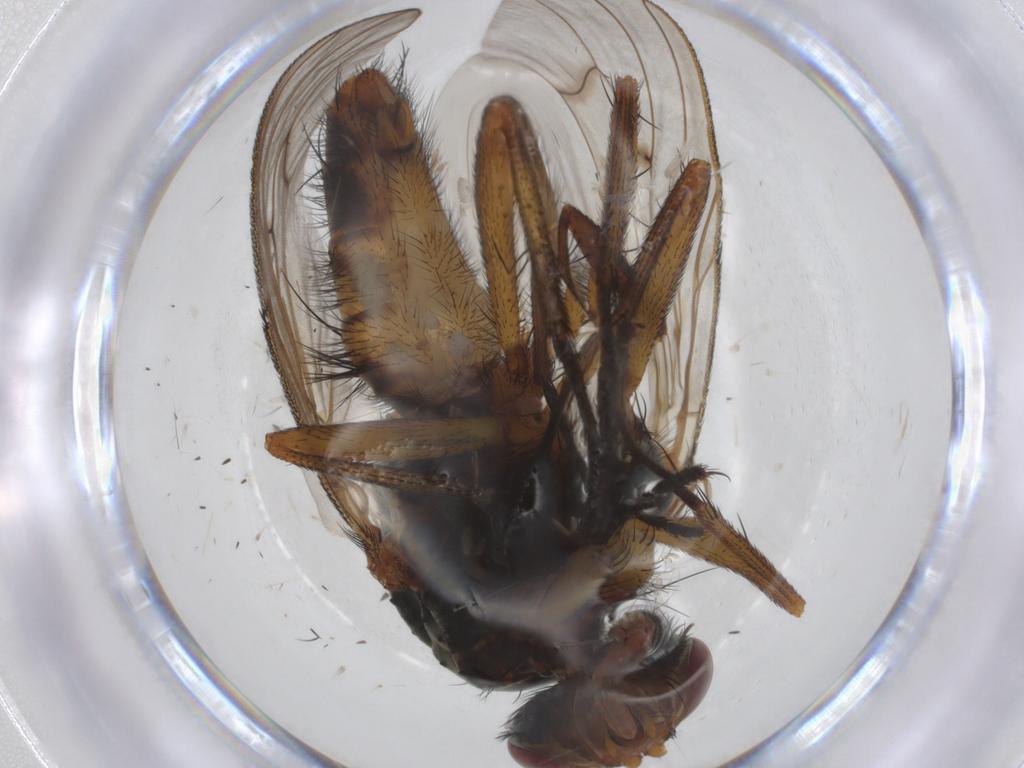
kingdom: Animalia
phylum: Arthropoda
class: Insecta
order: Diptera
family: Anthomyiidae
